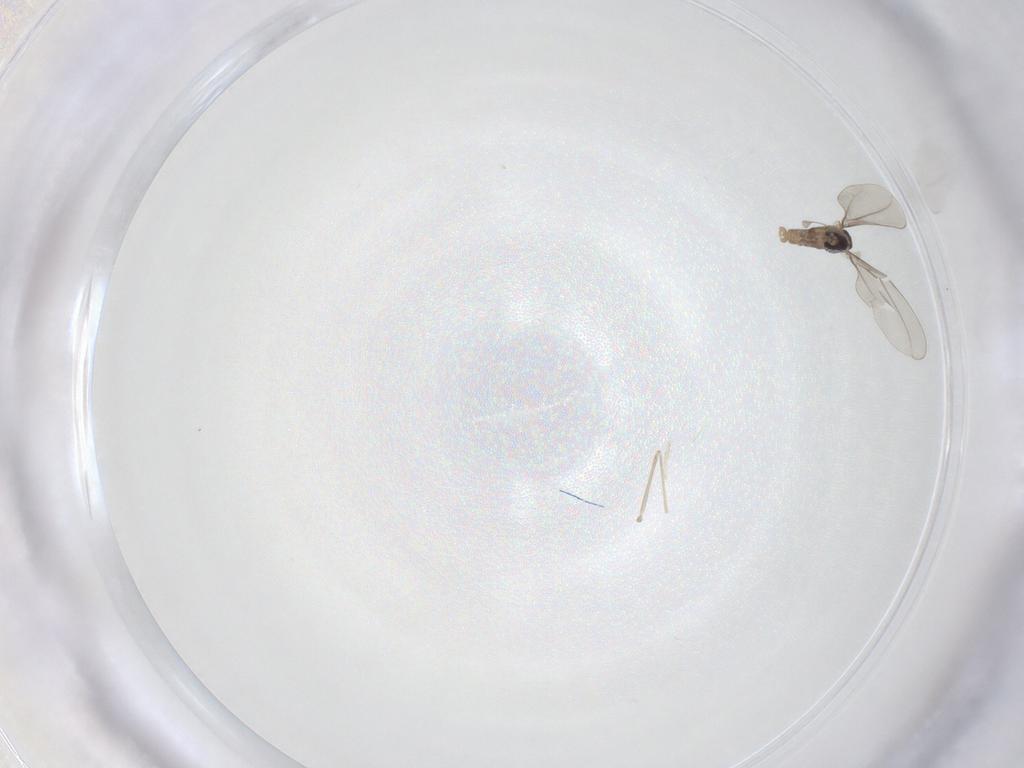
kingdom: Animalia
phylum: Arthropoda
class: Insecta
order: Diptera
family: Cecidomyiidae
